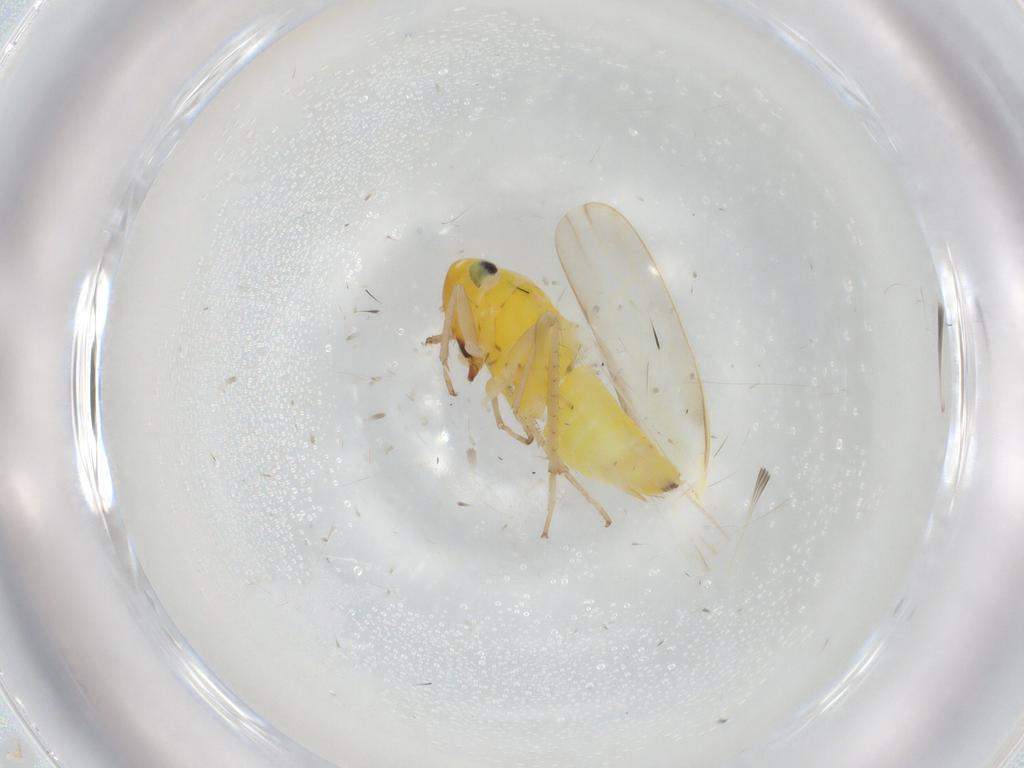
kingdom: Animalia
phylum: Arthropoda
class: Insecta
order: Hemiptera
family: Cicadellidae
